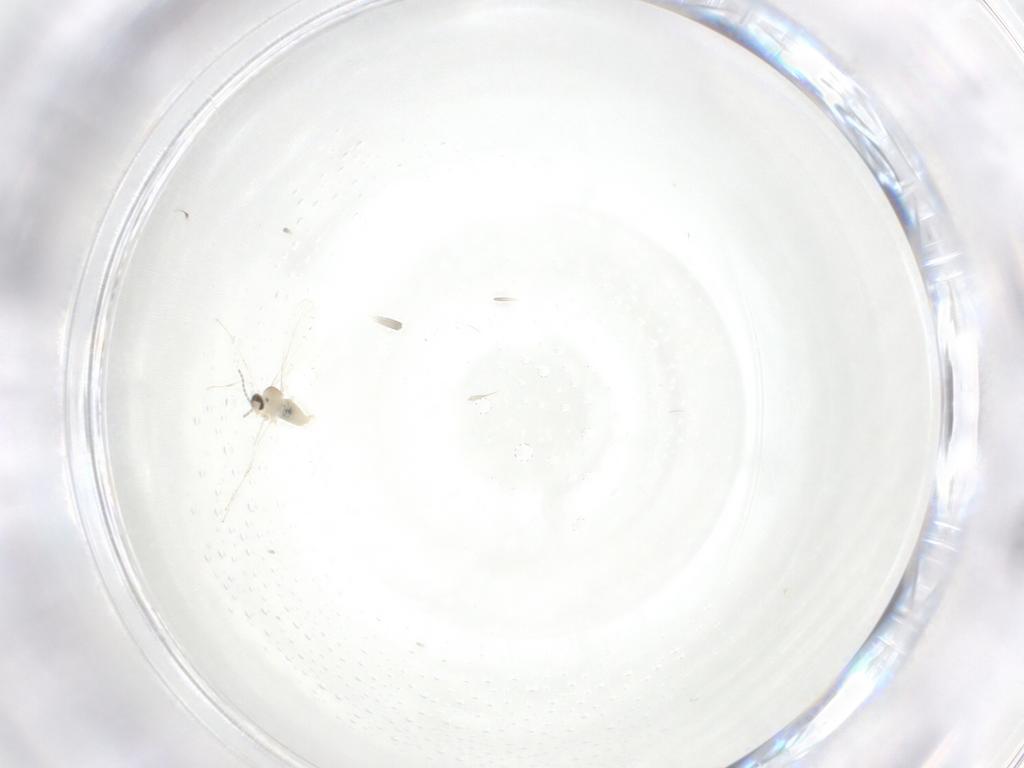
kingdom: Animalia
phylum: Arthropoda
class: Insecta
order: Diptera
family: Cecidomyiidae
